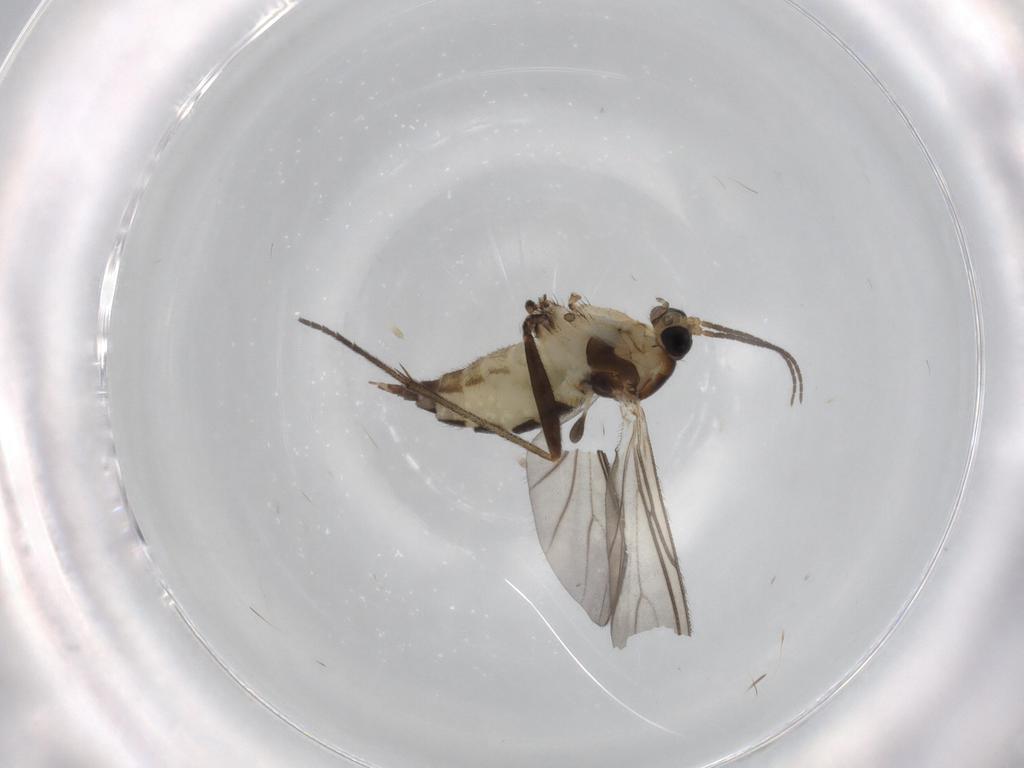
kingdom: Animalia
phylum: Arthropoda
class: Insecta
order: Diptera
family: Sciaridae
